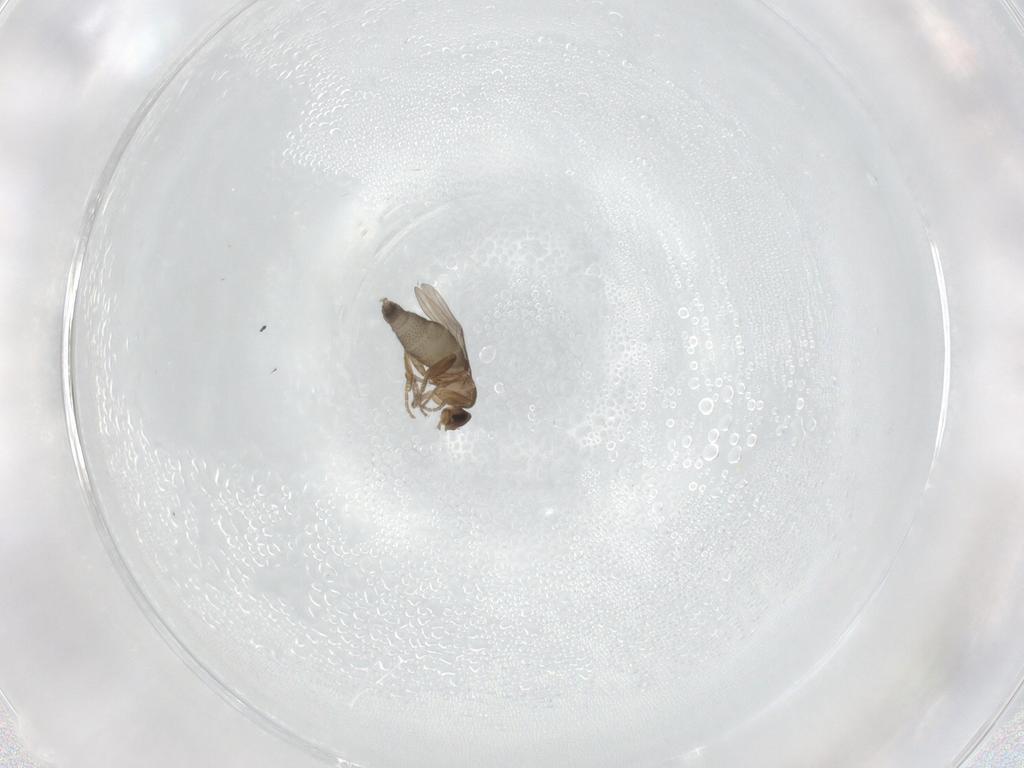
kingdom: Animalia
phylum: Arthropoda
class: Insecta
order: Diptera
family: Phoridae
